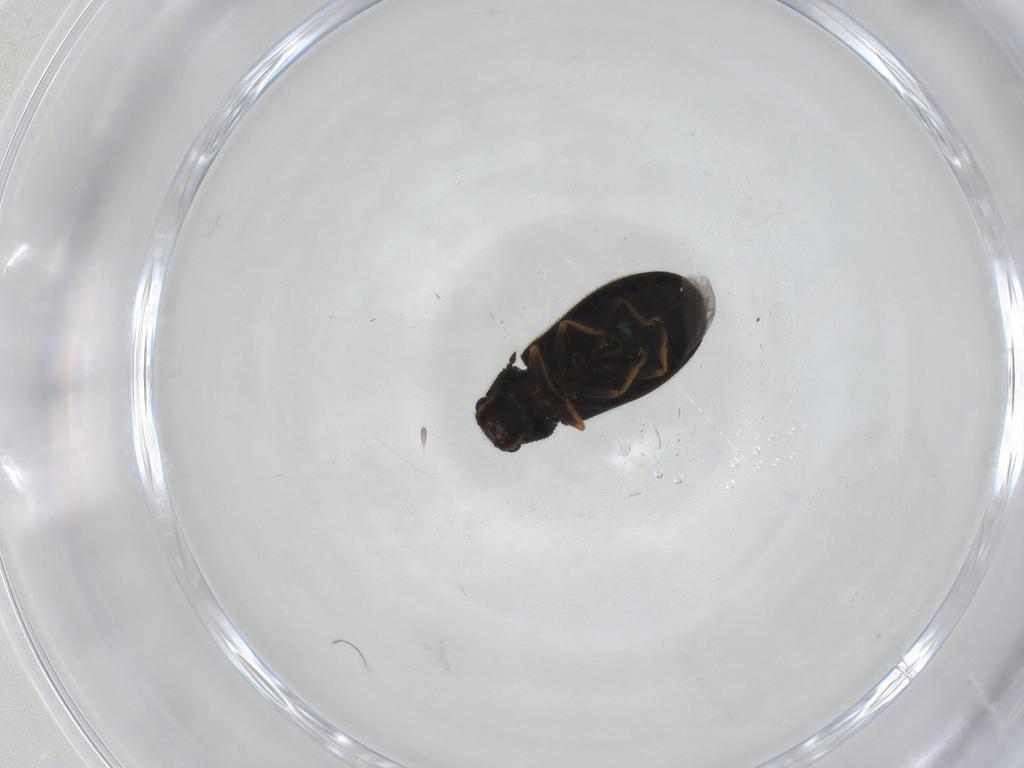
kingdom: Animalia
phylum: Arthropoda
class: Insecta
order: Coleoptera
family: Melyridae
